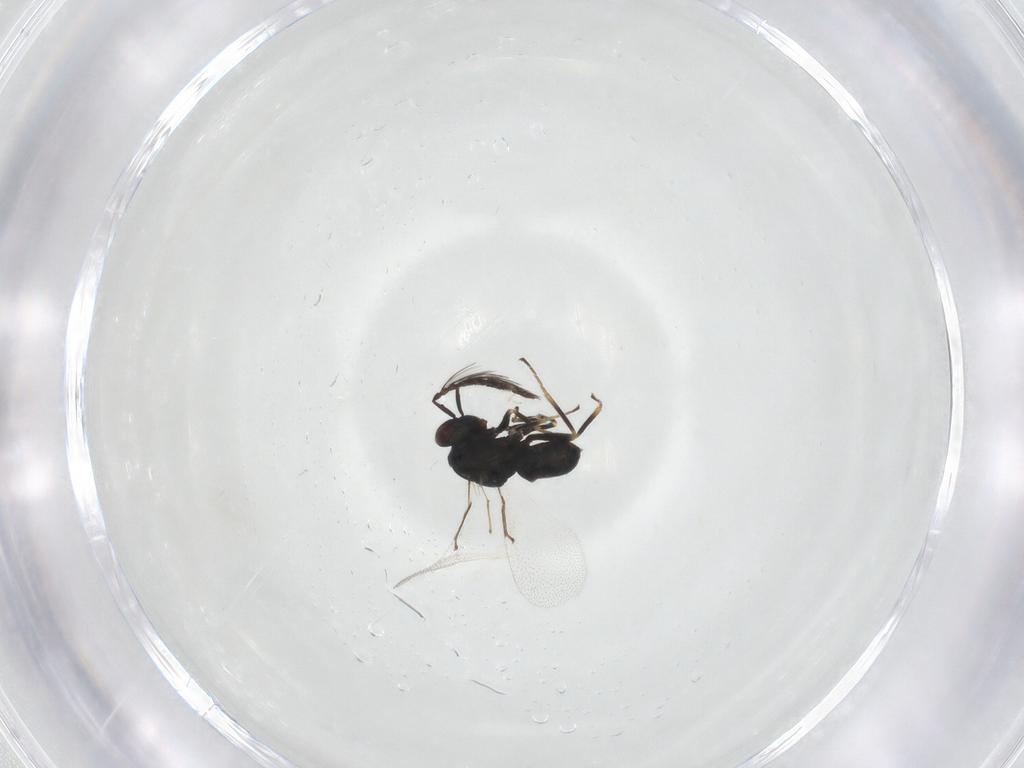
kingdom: Animalia
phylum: Arthropoda
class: Insecta
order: Hymenoptera
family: Eulophidae
